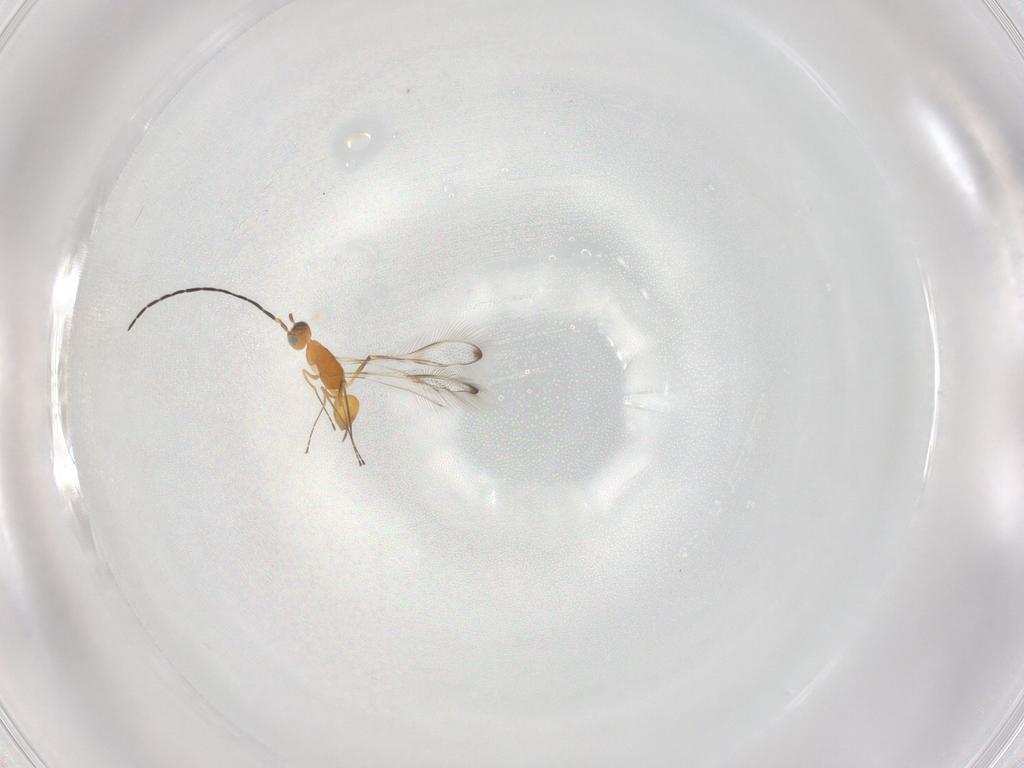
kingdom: Animalia
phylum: Arthropoda
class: Insecta
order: Hymenoptera
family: Mymaridae
